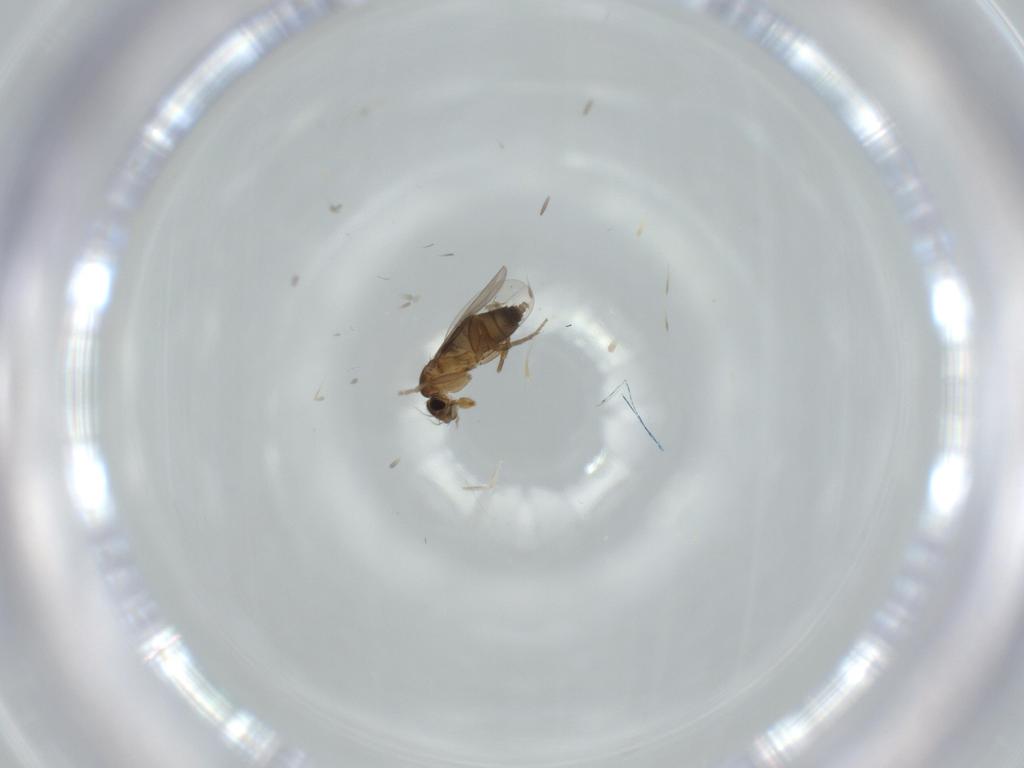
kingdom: Animalia
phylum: Arthropoda
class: Insecta
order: Diptera
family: Phoridae
